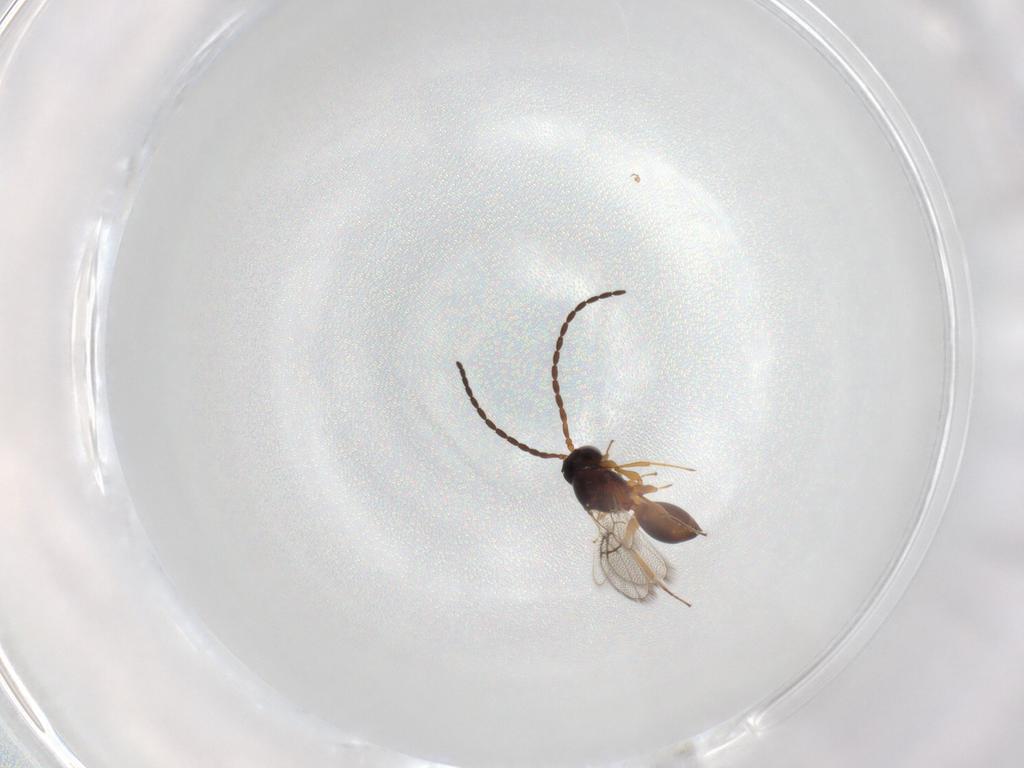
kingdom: Animalia
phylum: Arthropoda
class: Insecta
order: Hymenoptera
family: Figitidae
